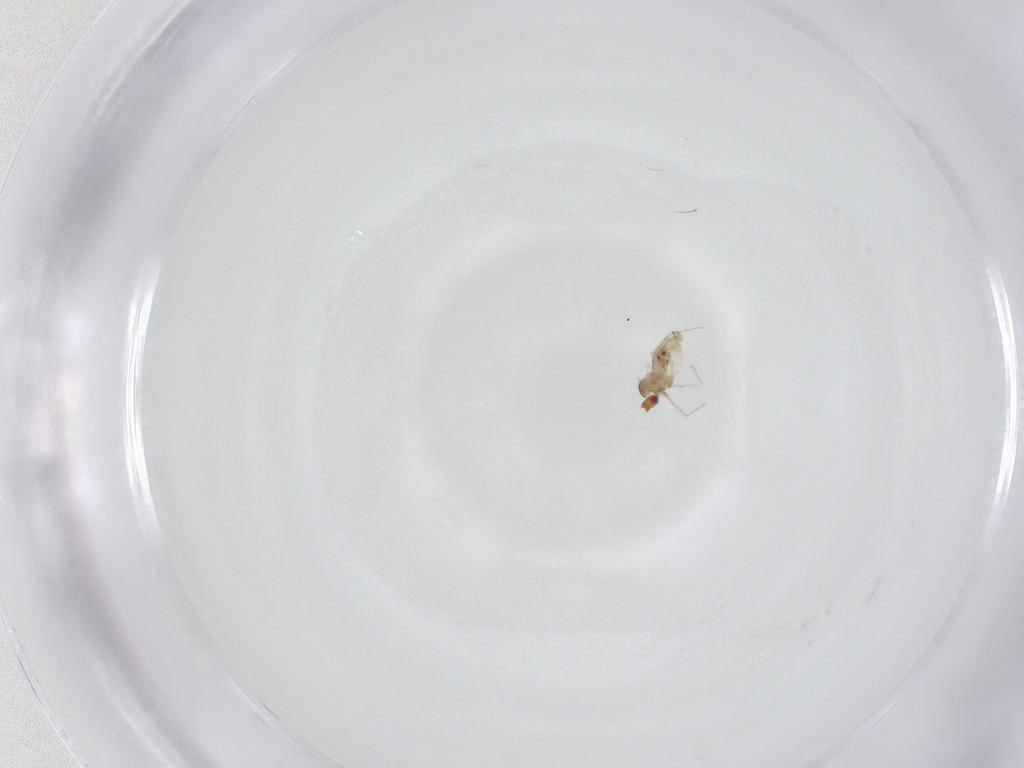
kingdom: Animalia
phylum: Arthropoda
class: Insecta
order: Diptera
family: Cecidomyiidae
